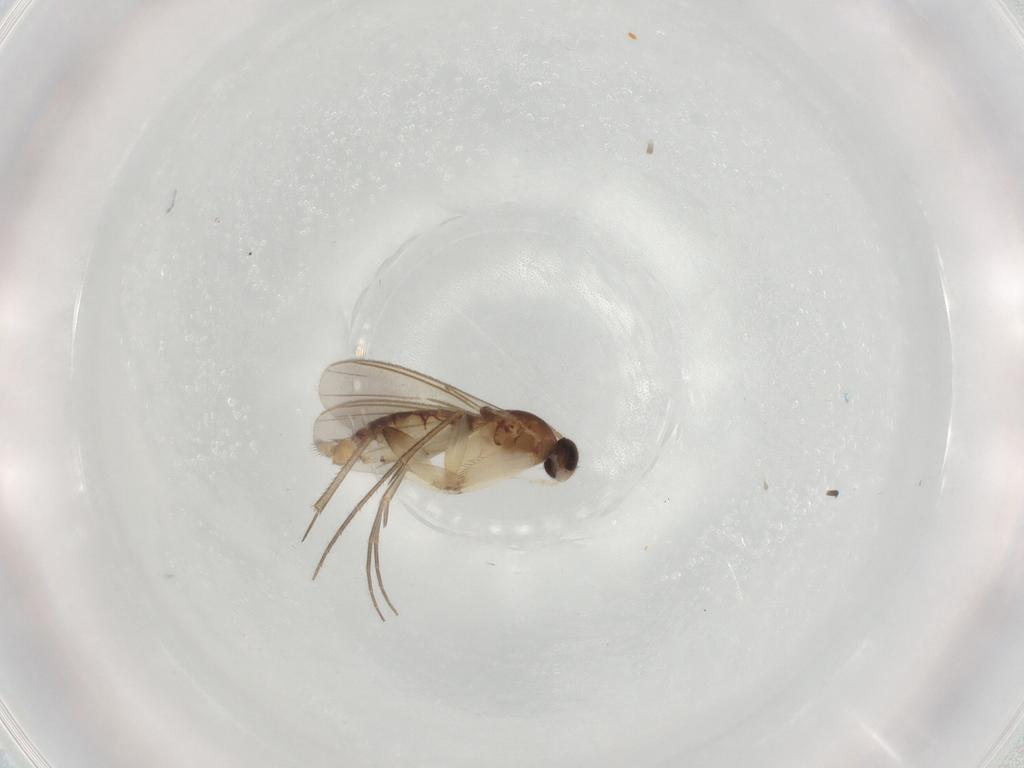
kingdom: Animalia
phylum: Arthropoda
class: Insecta
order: Diptera
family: Mycetophilidae
